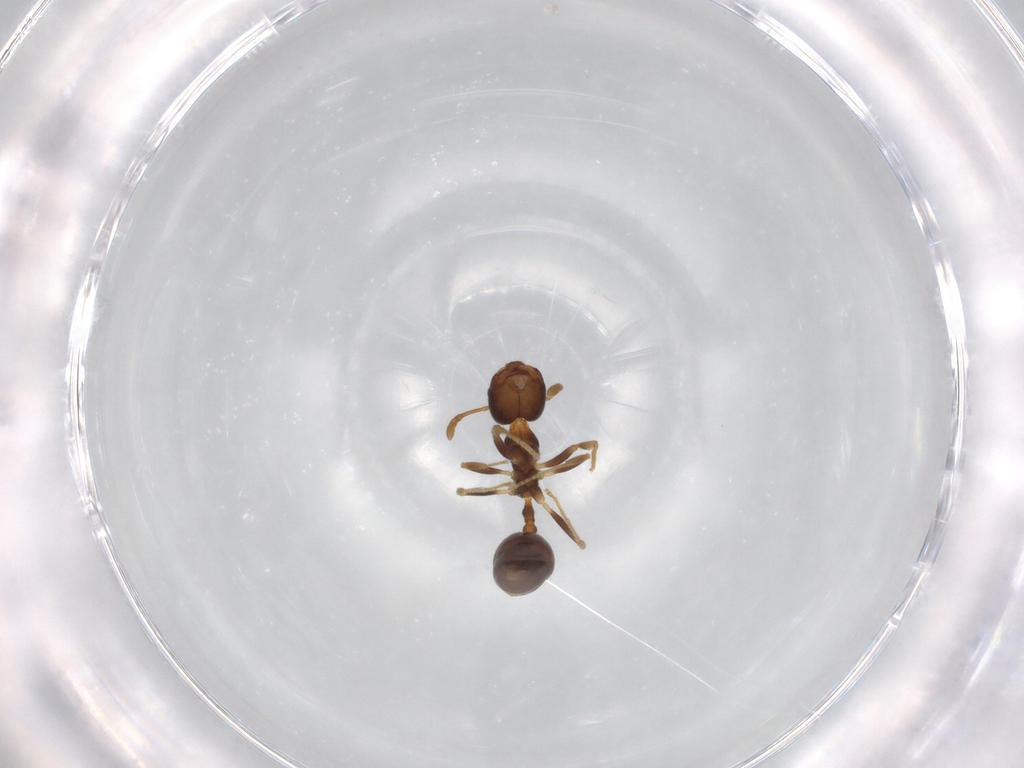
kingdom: Animalia
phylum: Arthropoda
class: Insecta
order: Hymenoptera
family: Formicidae
